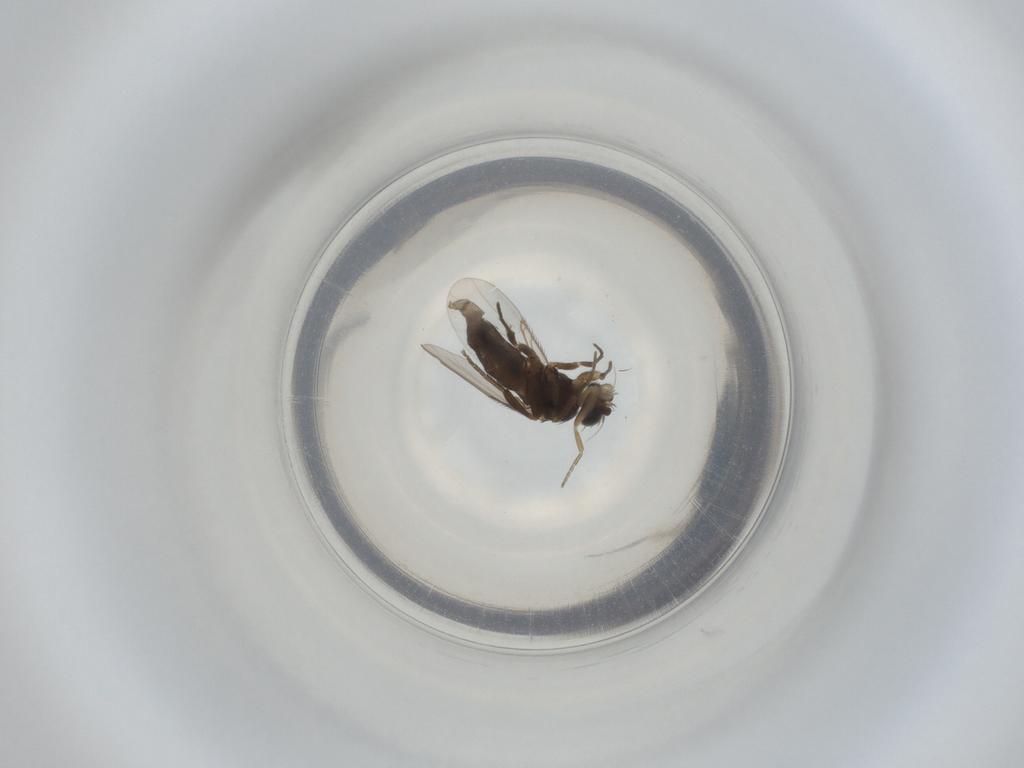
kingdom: Animalia
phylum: Arthropoda
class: Insecta
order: Diptera
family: Phoridae
